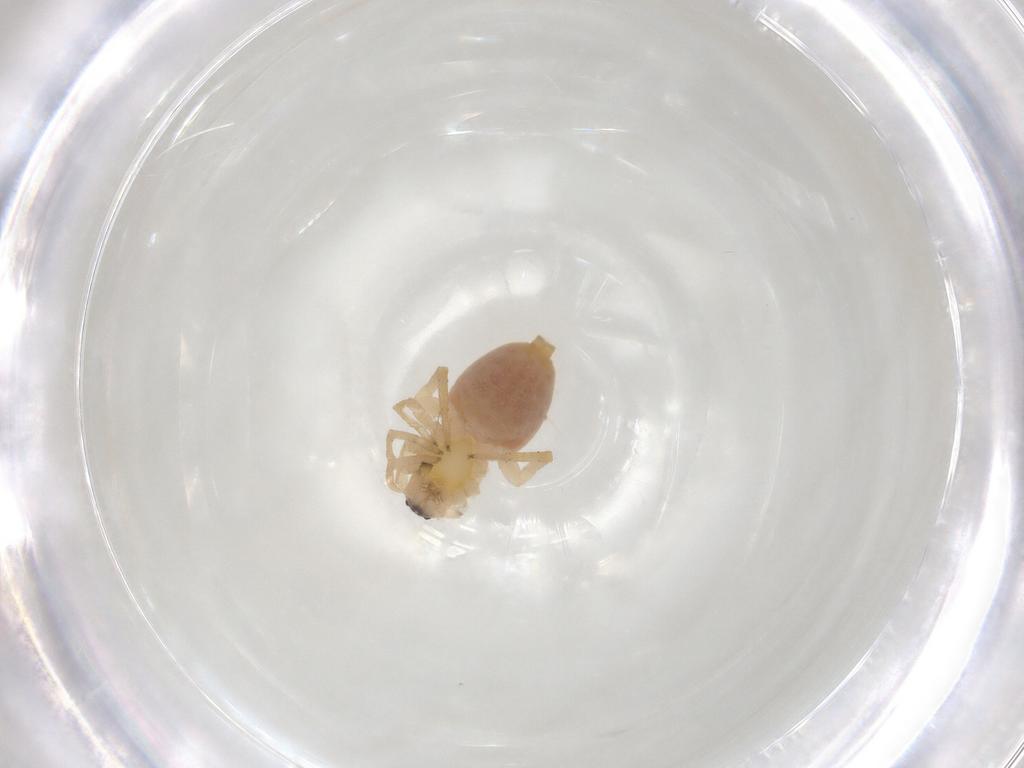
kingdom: Animalia
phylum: Arthropoda
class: Arachnida
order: Araneae
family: Clubionidae
